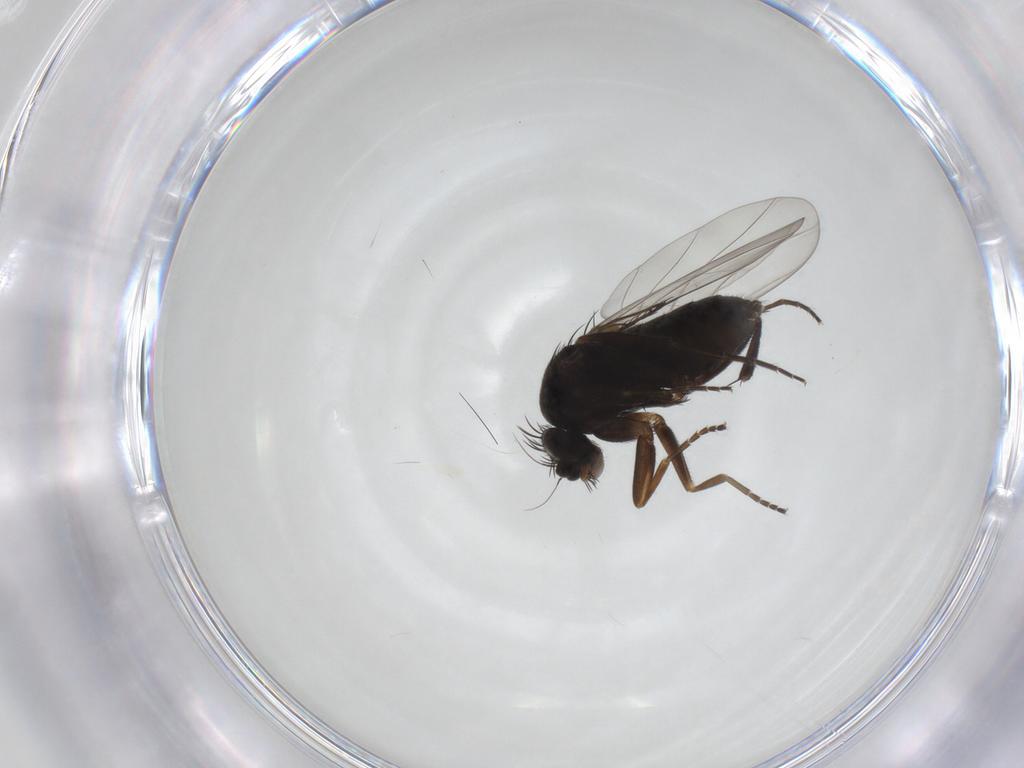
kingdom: Animalia
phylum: Arthropoda
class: Insecta
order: Diptera
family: Phoridae
